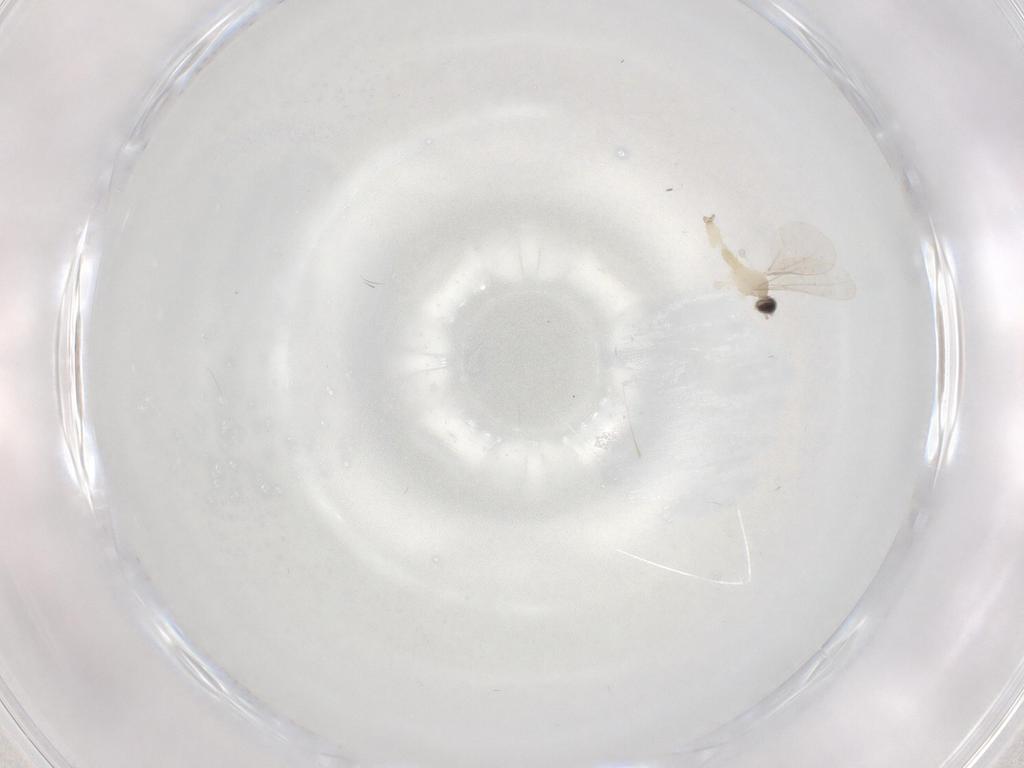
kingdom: Animalia
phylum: Arthropoda
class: Insecta
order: Diptera
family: Cecidomyiidae
